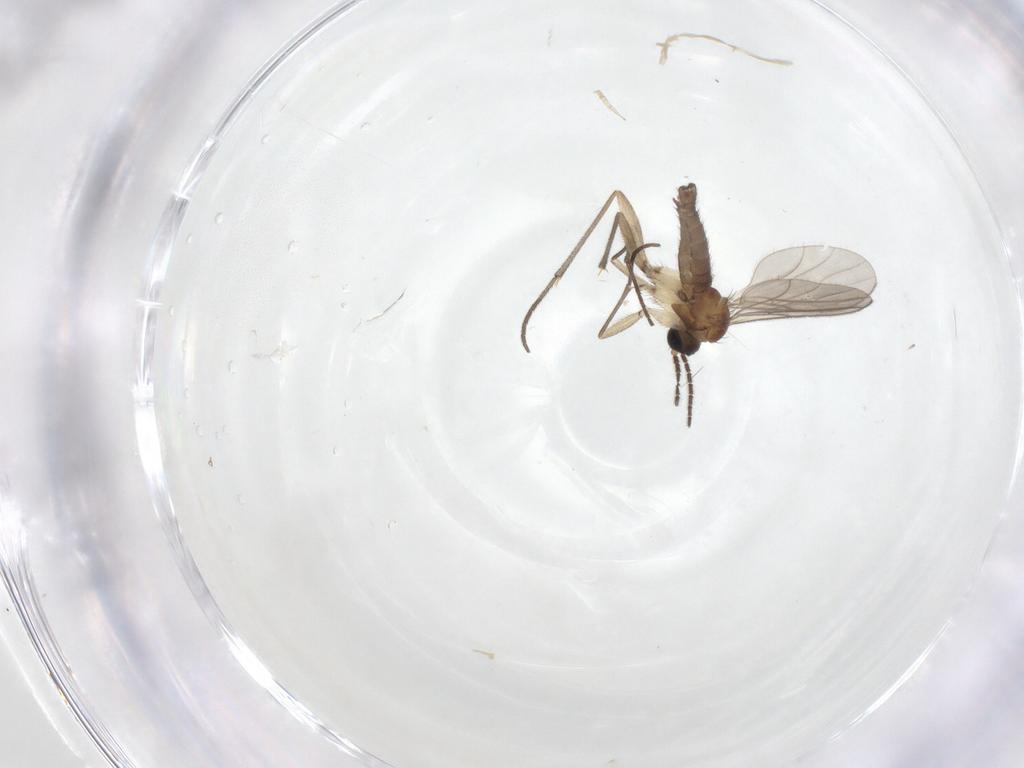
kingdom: Animalia
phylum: Arthropoda
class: Insecta
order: Diptera
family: Sciaridae
